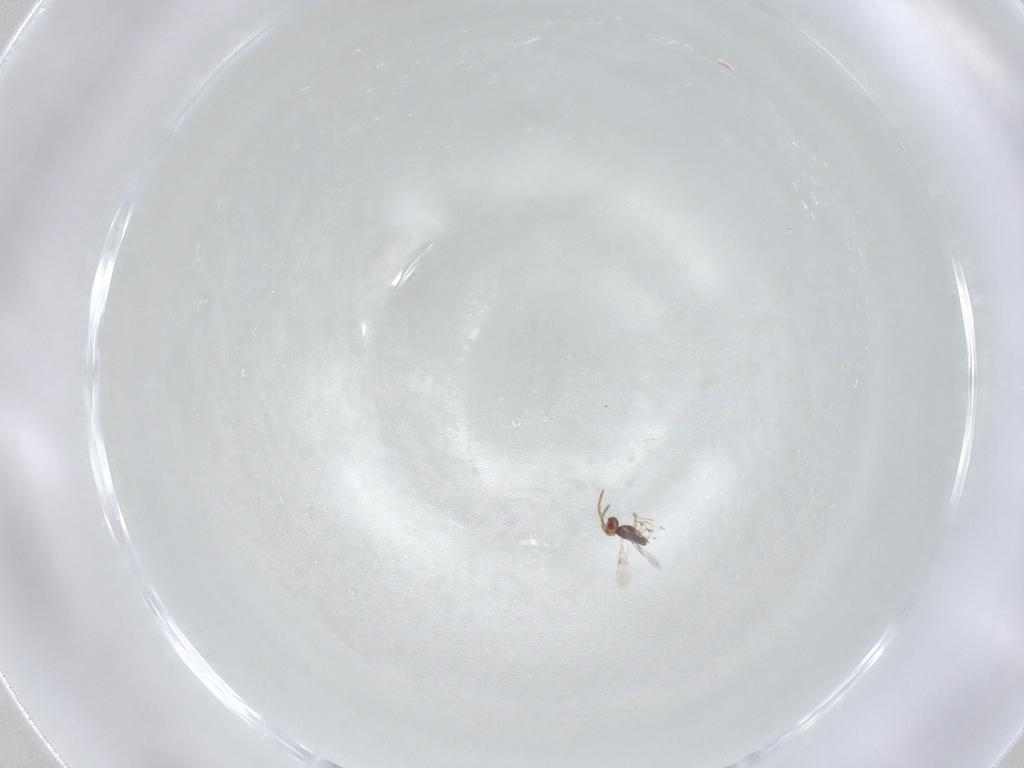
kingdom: Animalia
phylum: Arthropoda
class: Insecta
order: Hymenoptera
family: Azotidae
